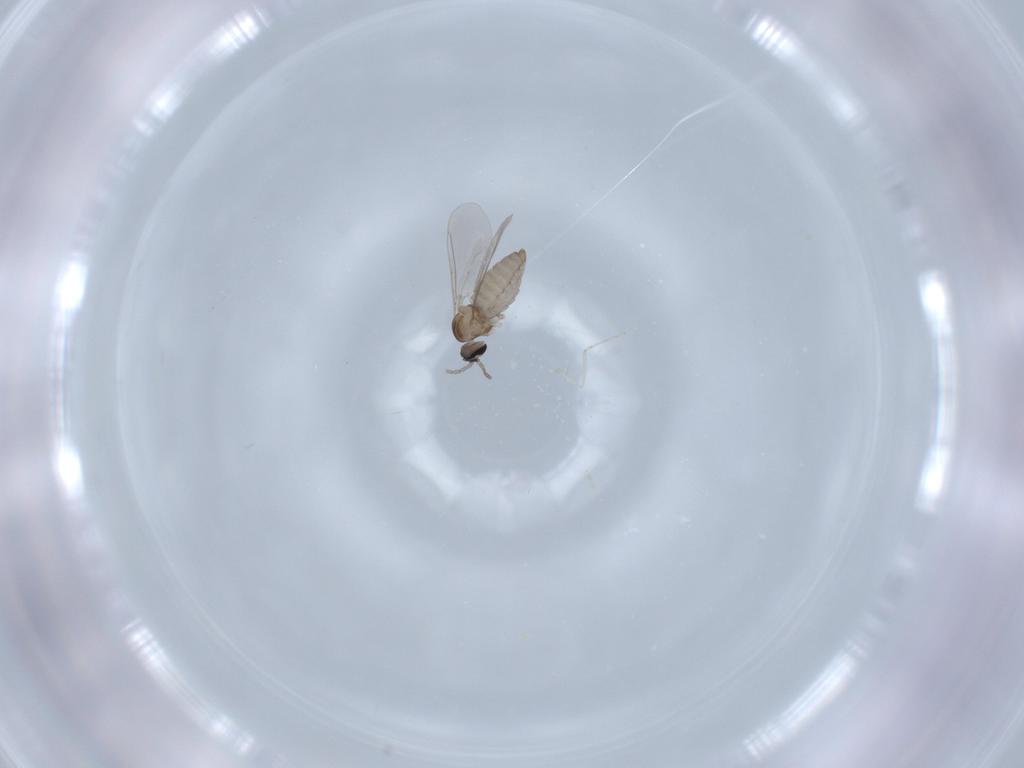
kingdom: Animalia
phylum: Arthropoda
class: Insecta
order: Diptera
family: Cecidomyiidae
